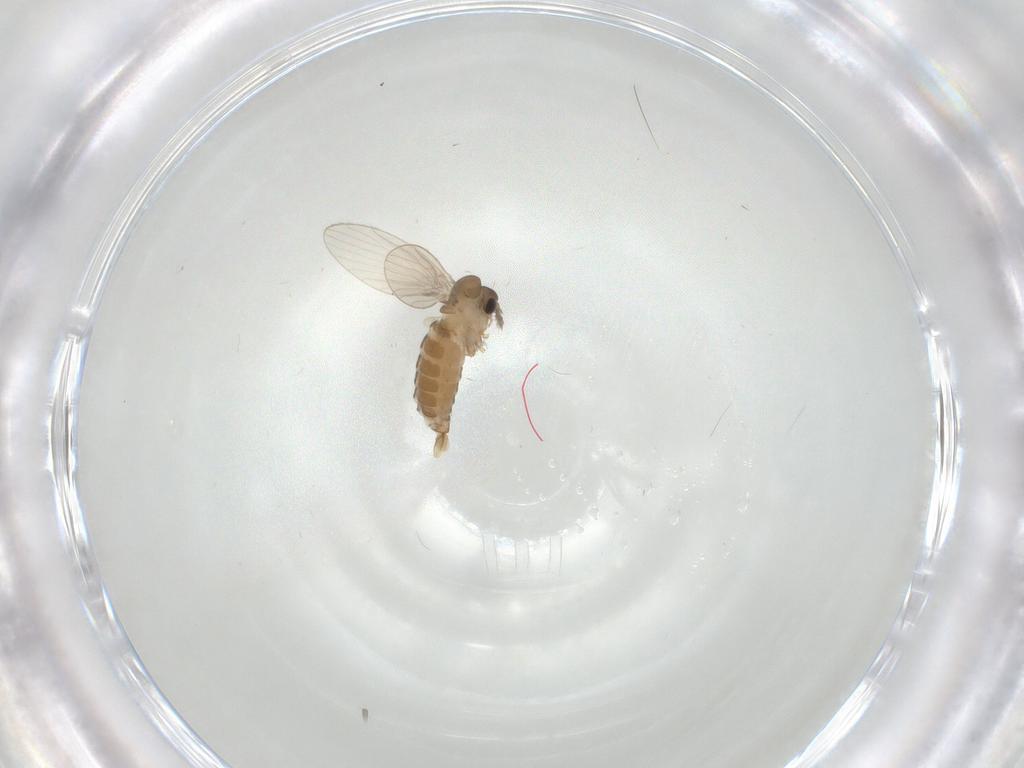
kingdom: Animalia
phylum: Arthropoda
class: Insecta
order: Diptera
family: Psychodidae
